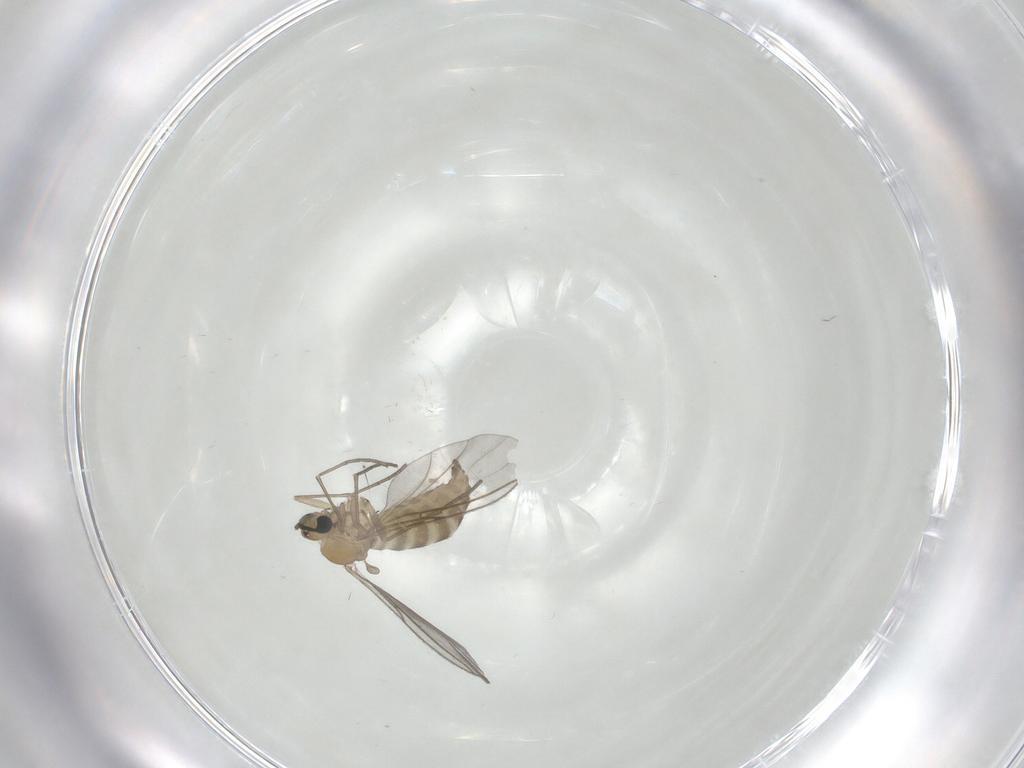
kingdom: Animalia
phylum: Arthropoda
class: Insecta
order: Diptera
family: Sciaridae
